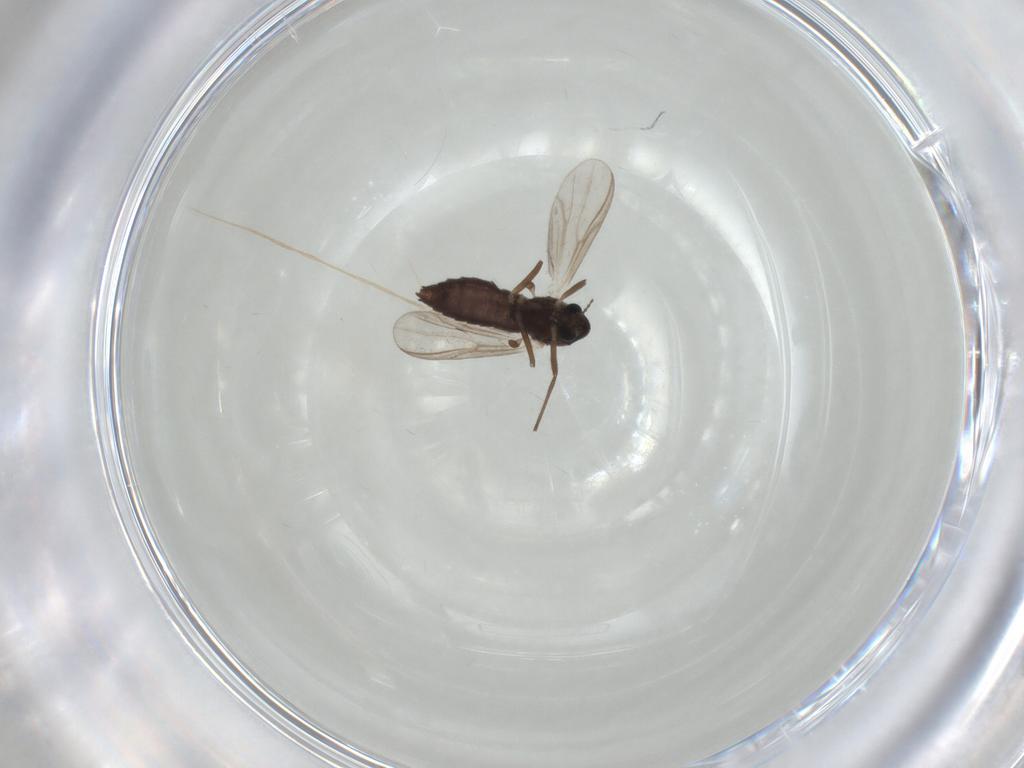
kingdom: Animalia
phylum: Arthropoda
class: Insecta
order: Diptera
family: Chironomidae
